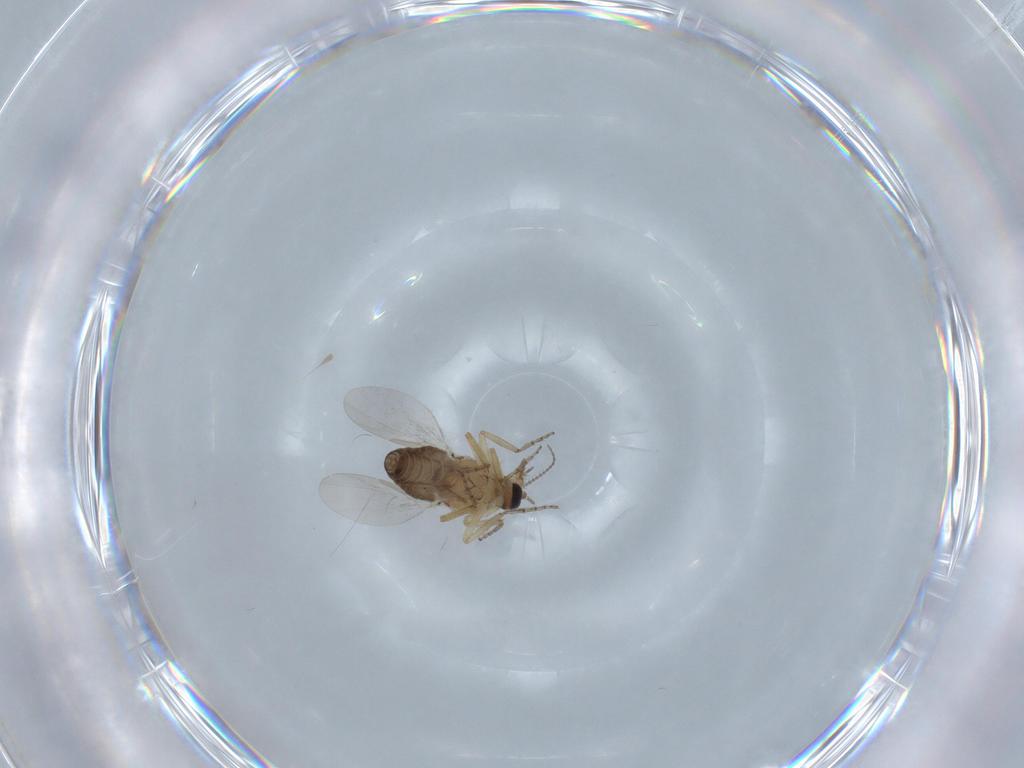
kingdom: Animalia
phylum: Arthropoda
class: Insecta
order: Diptera
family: Ceratopogonidae
